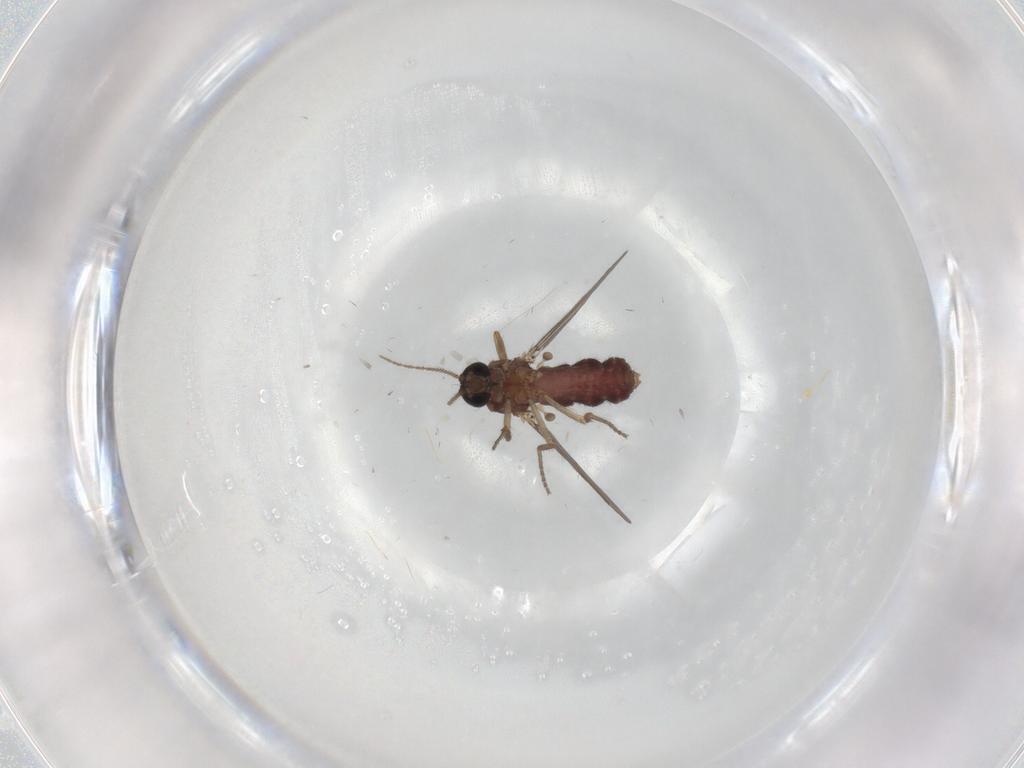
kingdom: Animalia
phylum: Arthropoda
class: Insecta
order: Diptera
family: Ceratopogonidae
